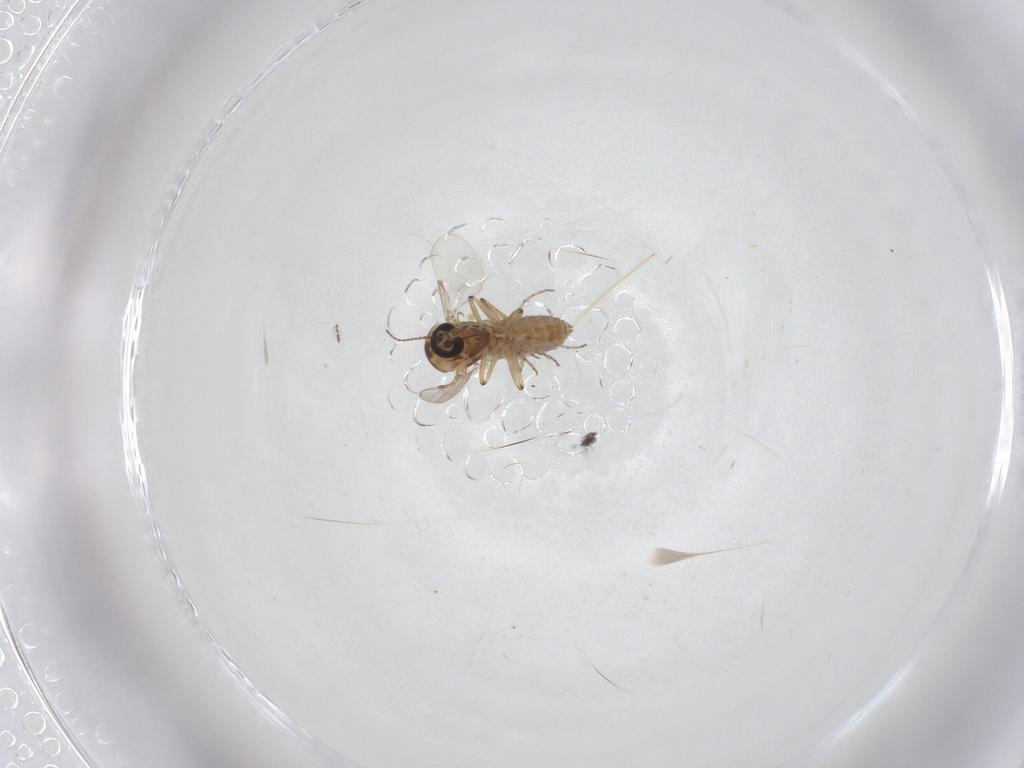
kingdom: Animalia
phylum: Arthropoda
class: Insecta
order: Diptera
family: Ceratopogonidae
